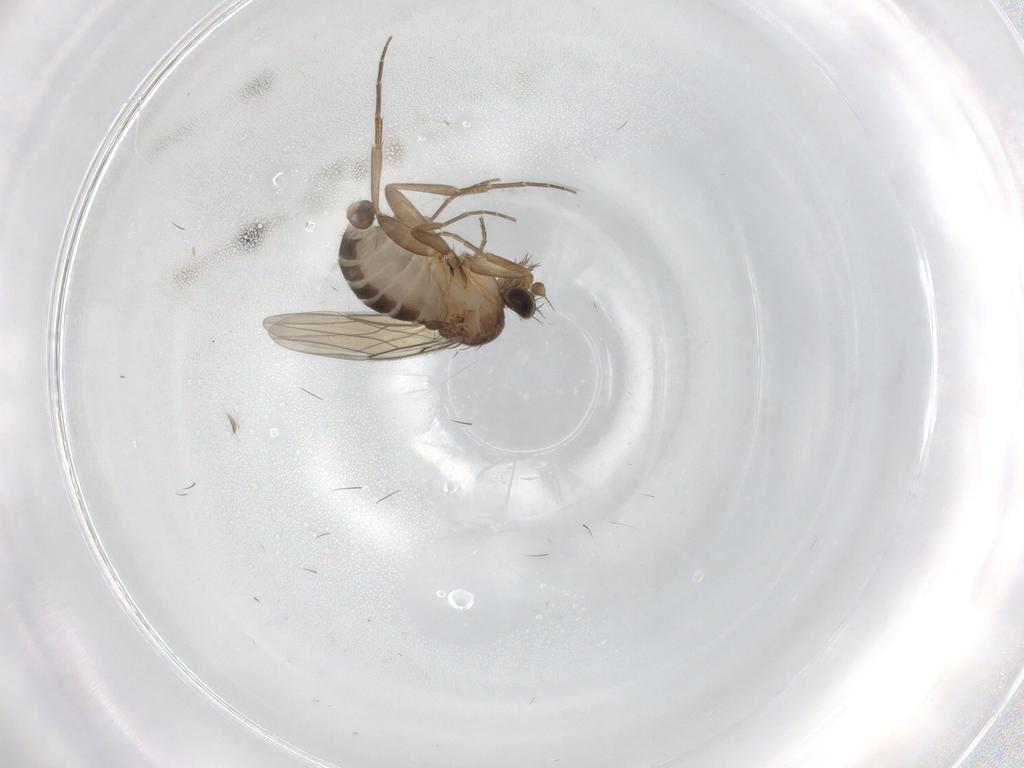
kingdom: Animalia
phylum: Arthropoda
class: Insecta
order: Diptera
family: Phoridae
